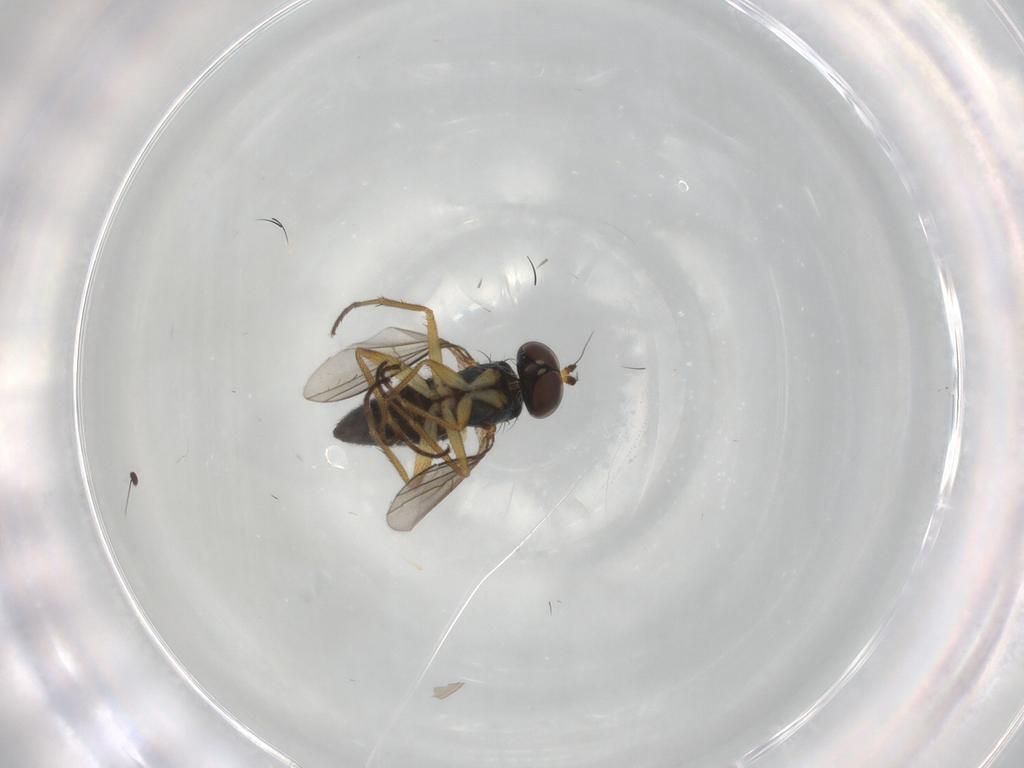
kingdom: Animalia
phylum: Arthropoda
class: Insecta
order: Diptera
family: Dolichopodidae
